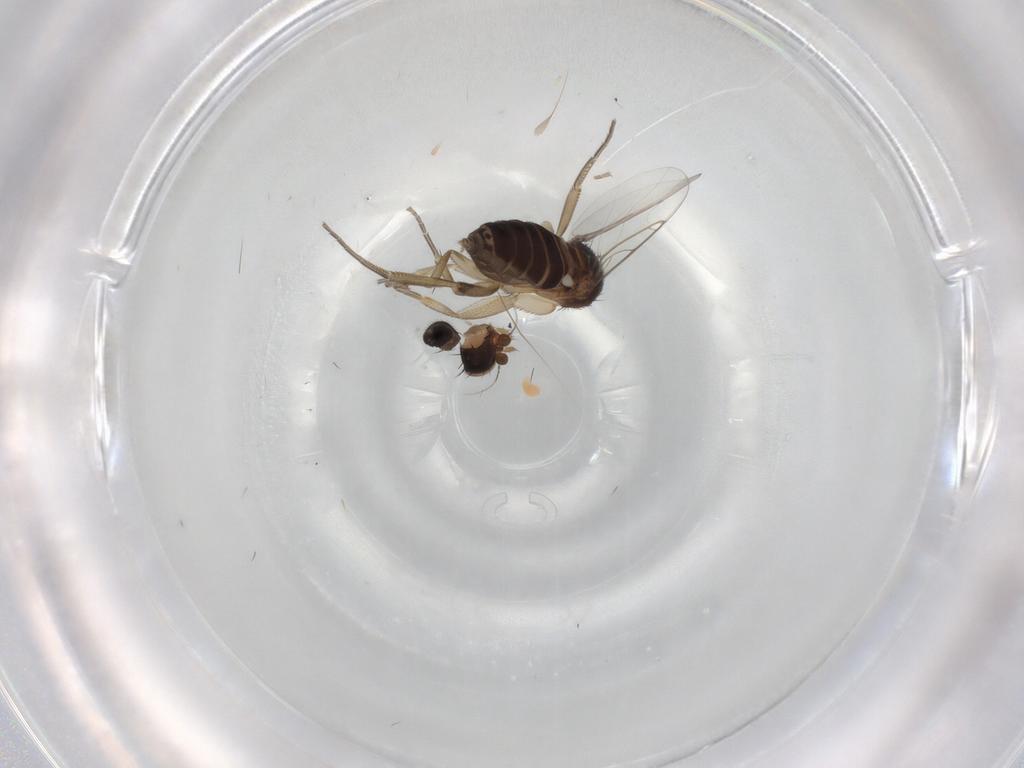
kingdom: Animalia
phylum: Arthropoda
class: Insecta
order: Diptera
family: Phoridae
